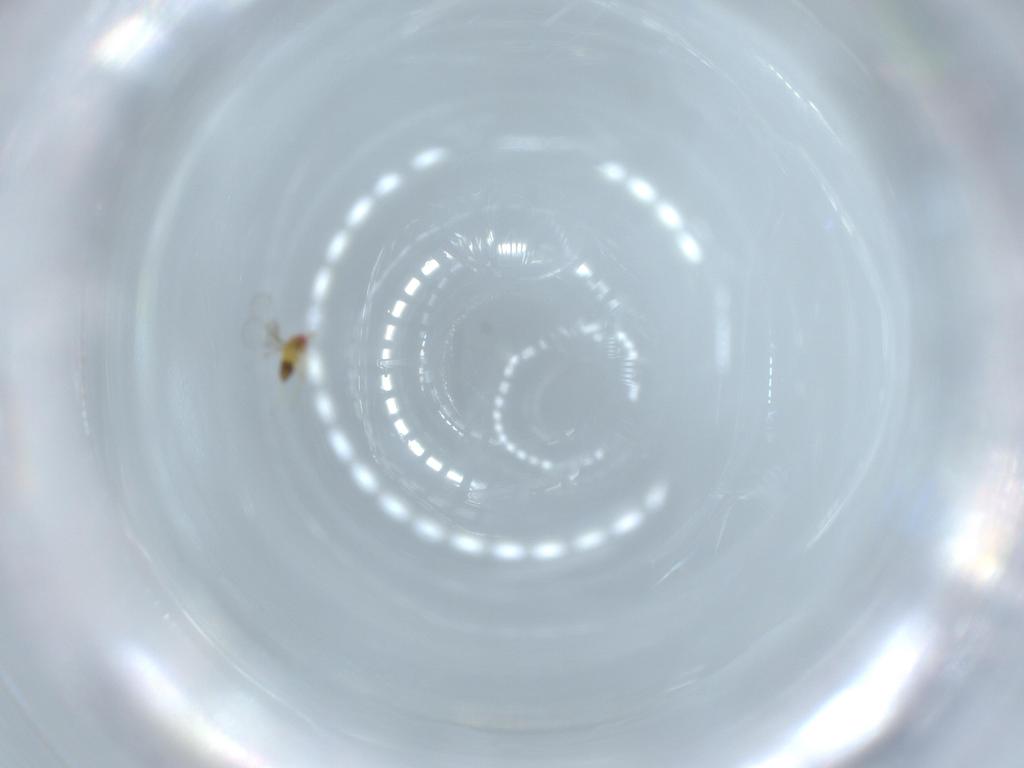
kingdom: Animalia
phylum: Arthropoda
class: Insecta
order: Hymenoptera
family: Trichogrammatidae
